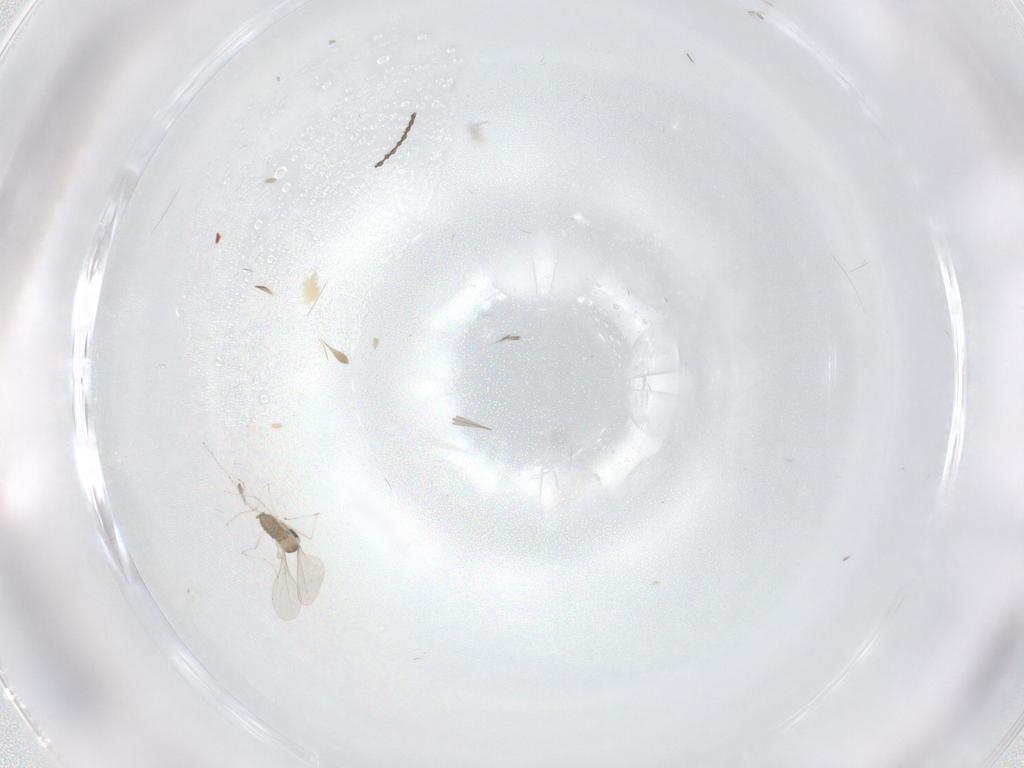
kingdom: Animalia
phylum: Arthropoda
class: Insecta
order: Diptera
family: Cecidomyiidae
